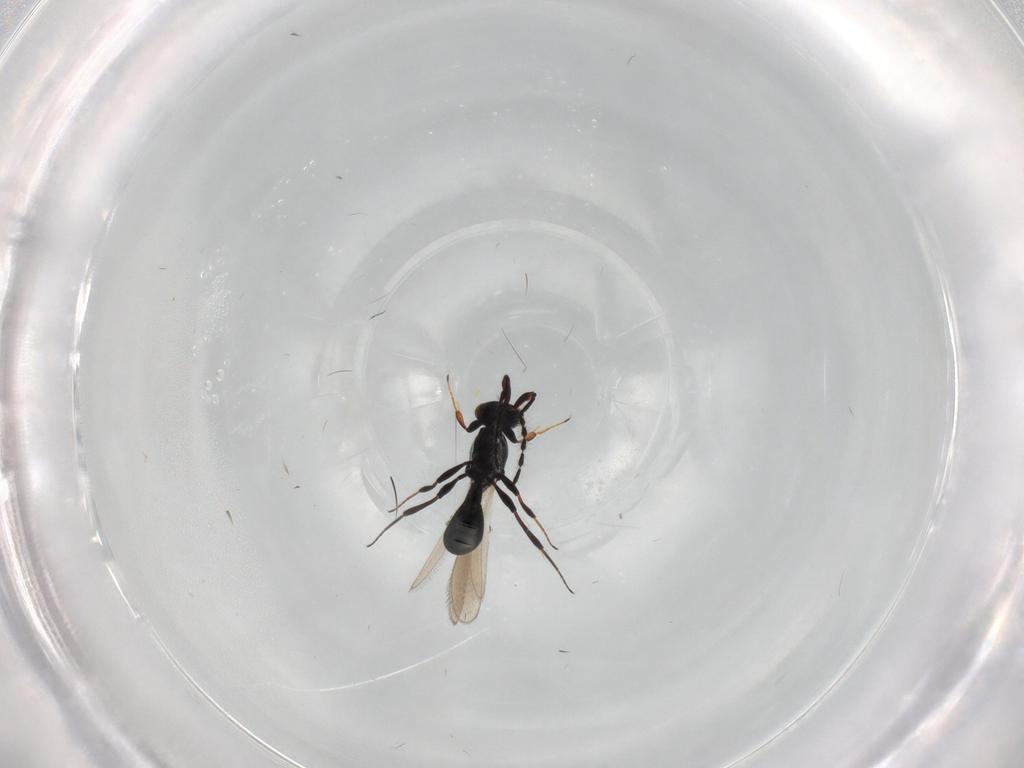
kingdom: Animalia
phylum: Arthropoda
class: Insecta
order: Hymenoptera
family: Platygastridae
